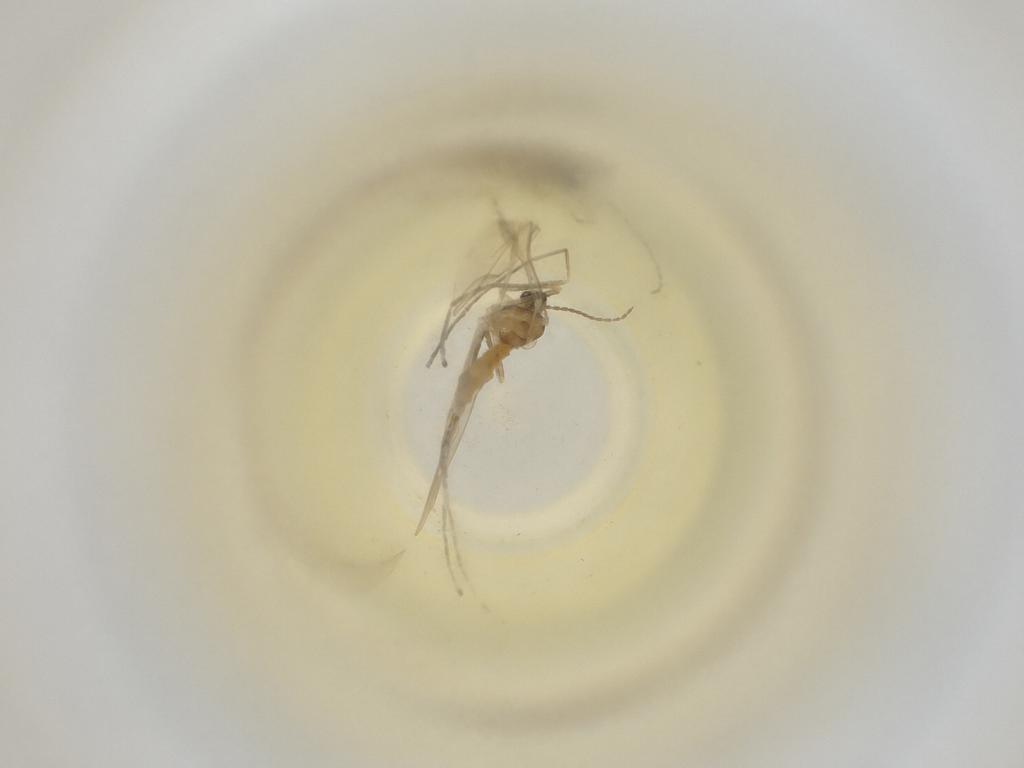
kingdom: Animalia
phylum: Arthropoda
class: Insecta
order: Diptera
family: Cecidomyiidae
